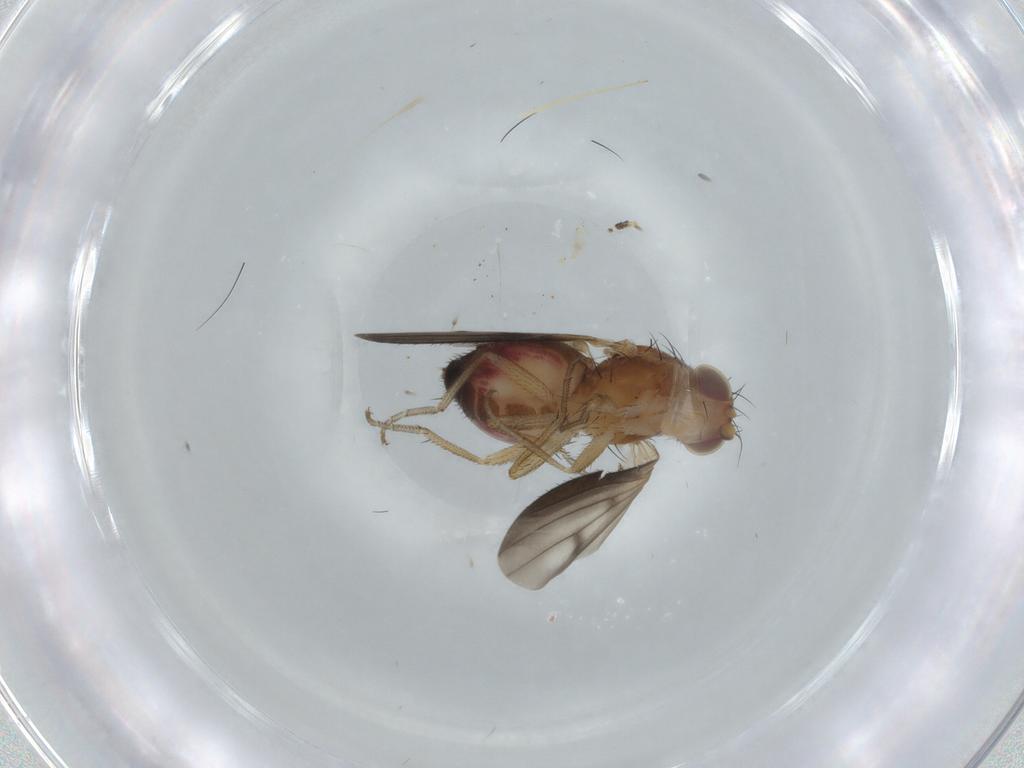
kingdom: Animalia
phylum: Arthropoda
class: Insecta
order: Diptera
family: Heleomyzidae
